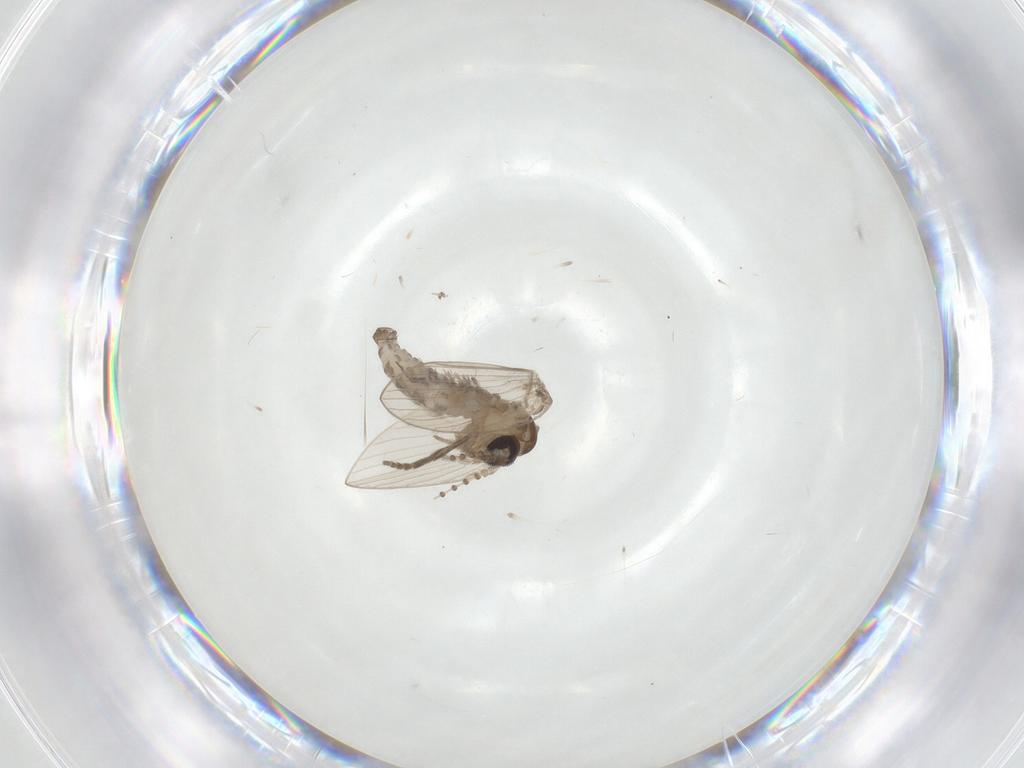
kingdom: Animalia
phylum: Arthropoda
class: Insecta
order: Diptera
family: Psychodidae
